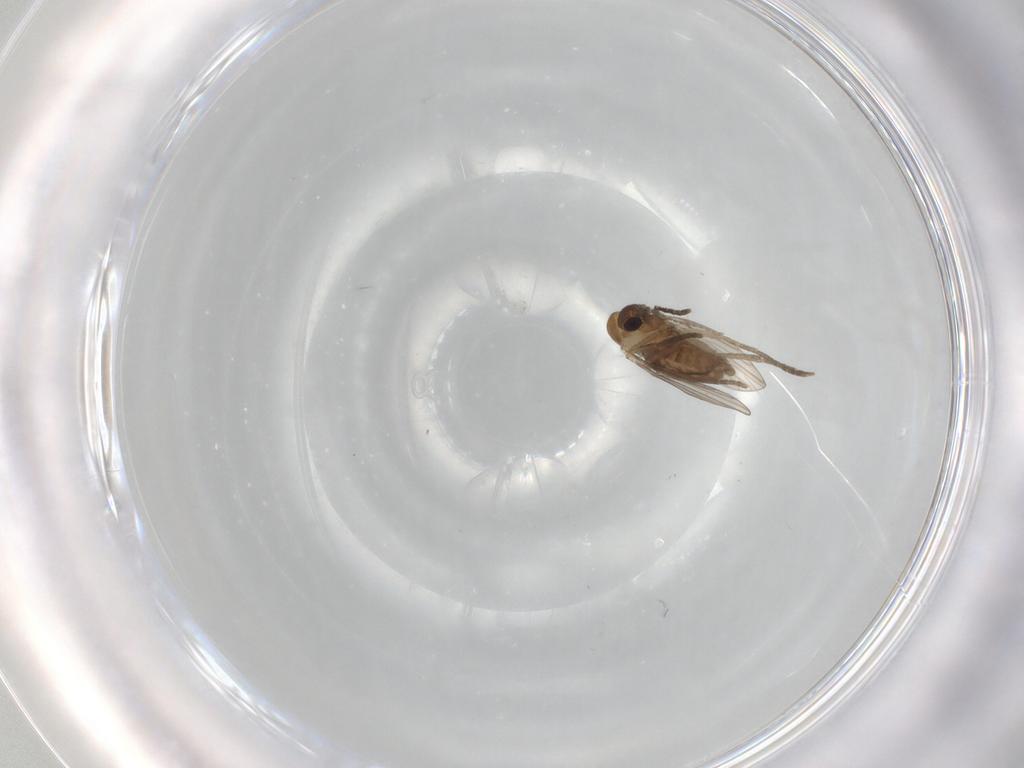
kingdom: Animalia
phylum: Arthropoda
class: Insecta
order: Diptera
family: Psychodidae
